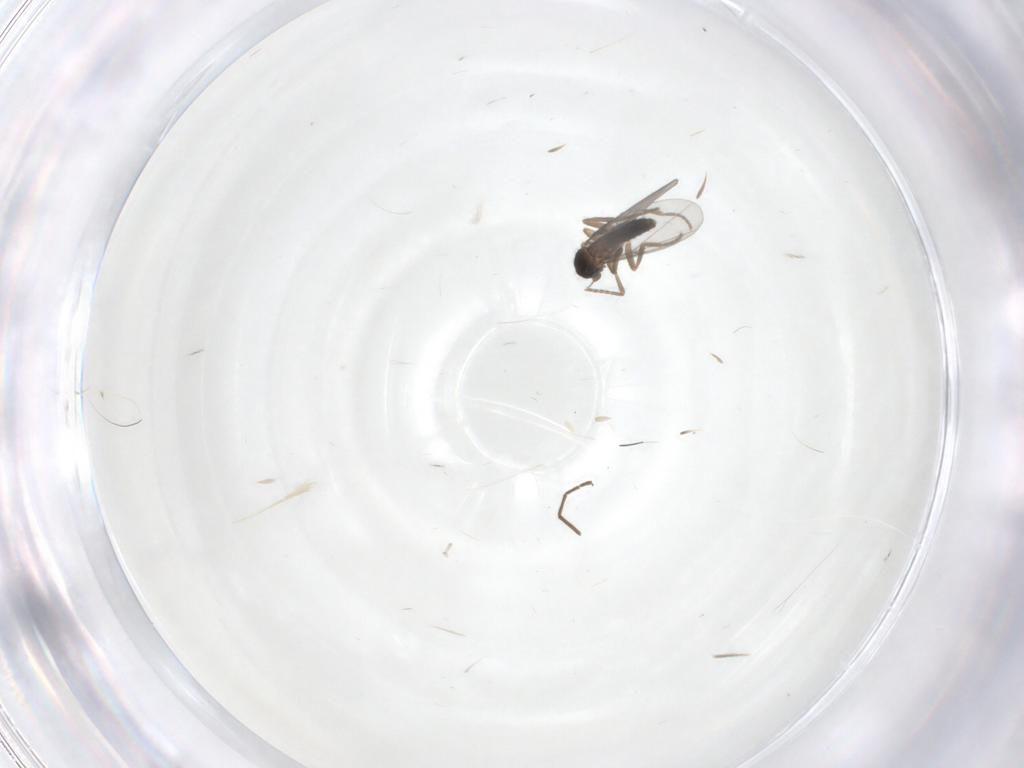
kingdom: Animalia
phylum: Arthropoda
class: Insecta
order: Diptera
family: Phoridae
